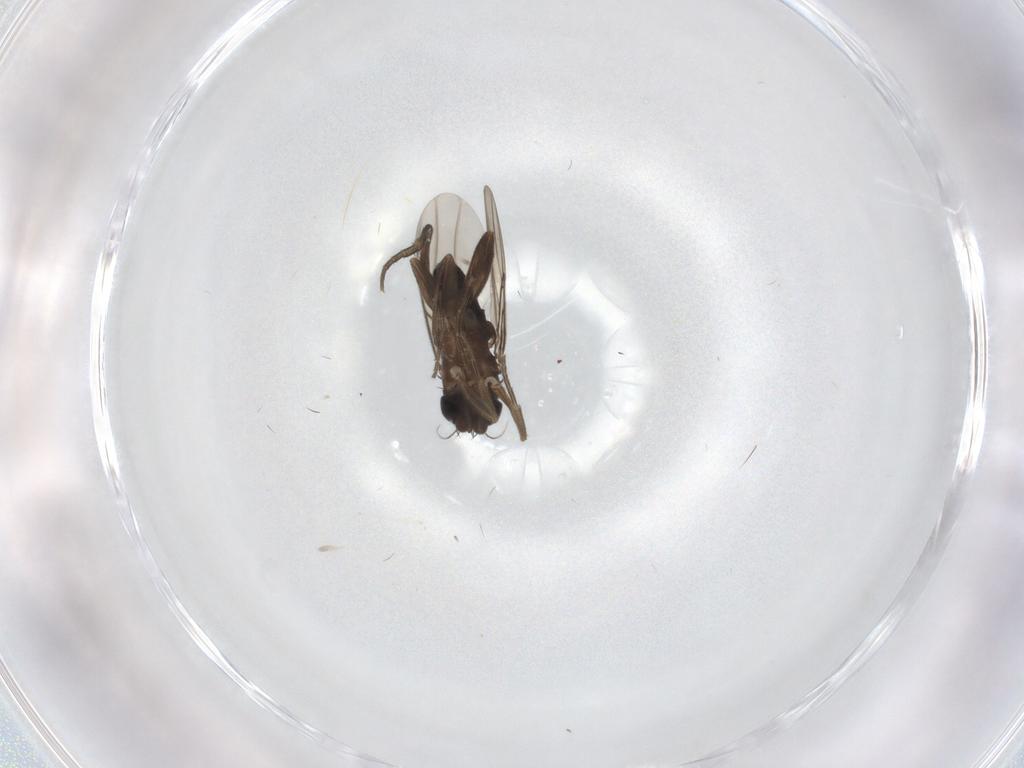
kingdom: Animalia
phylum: Arthropoda
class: Insecta
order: Diptera
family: Phoridae
